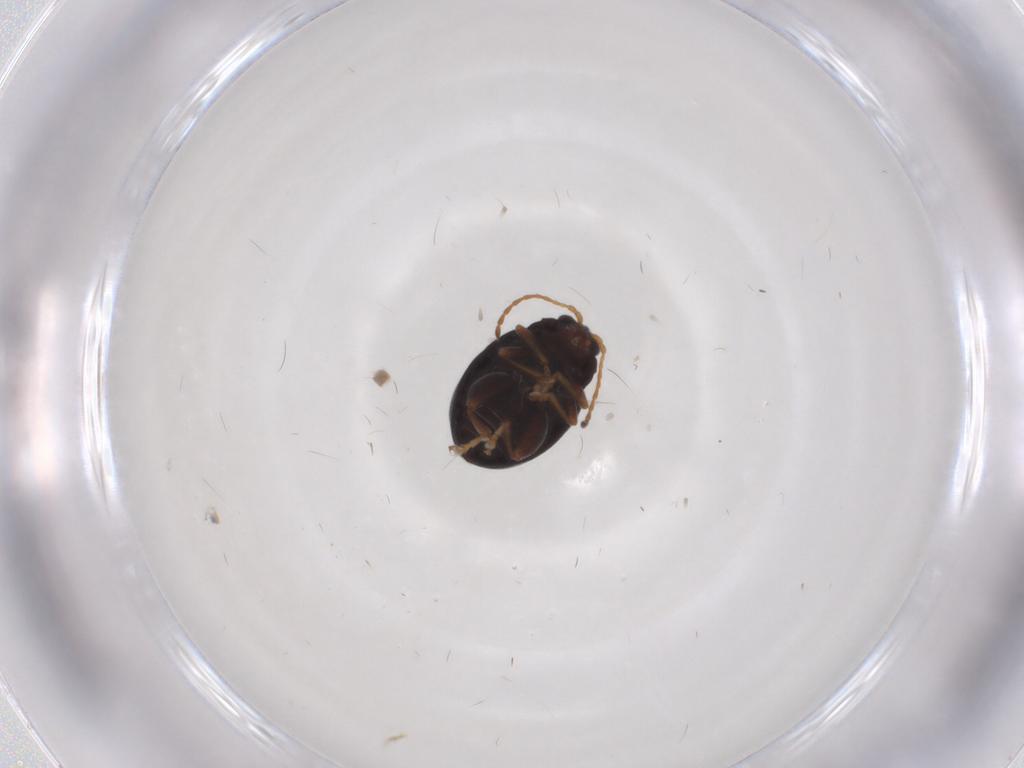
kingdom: Animalia
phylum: Arthropoda
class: Insecta
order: Coleoptera
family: Chrysomelidae
